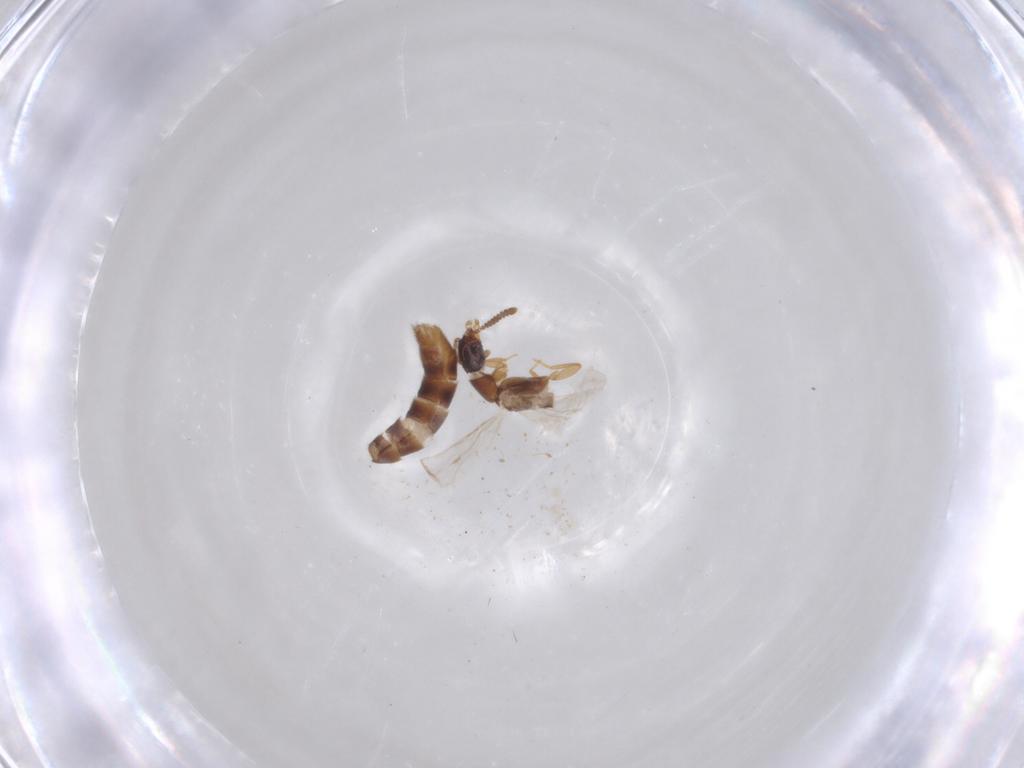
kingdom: Animalia
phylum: Arthropoda
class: Insecta
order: Coleoptera
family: Staphylinidae
